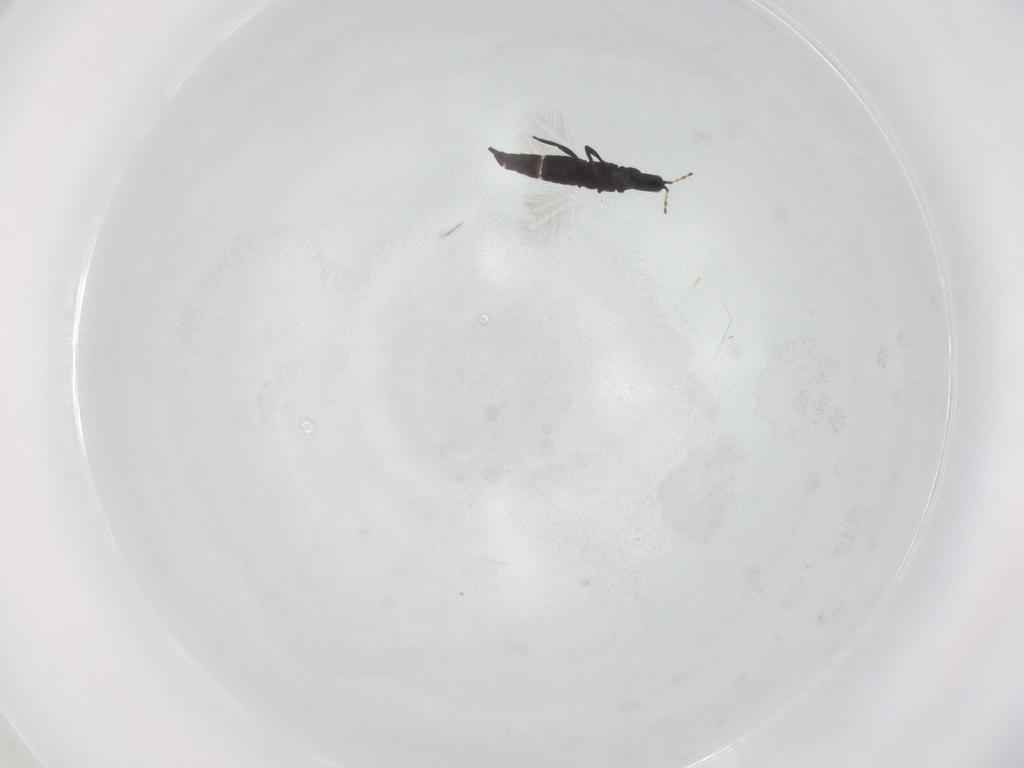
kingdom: Animalia
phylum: Arthropoda
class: Insecta
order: Thysanoptera
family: Phlaeothripidae
